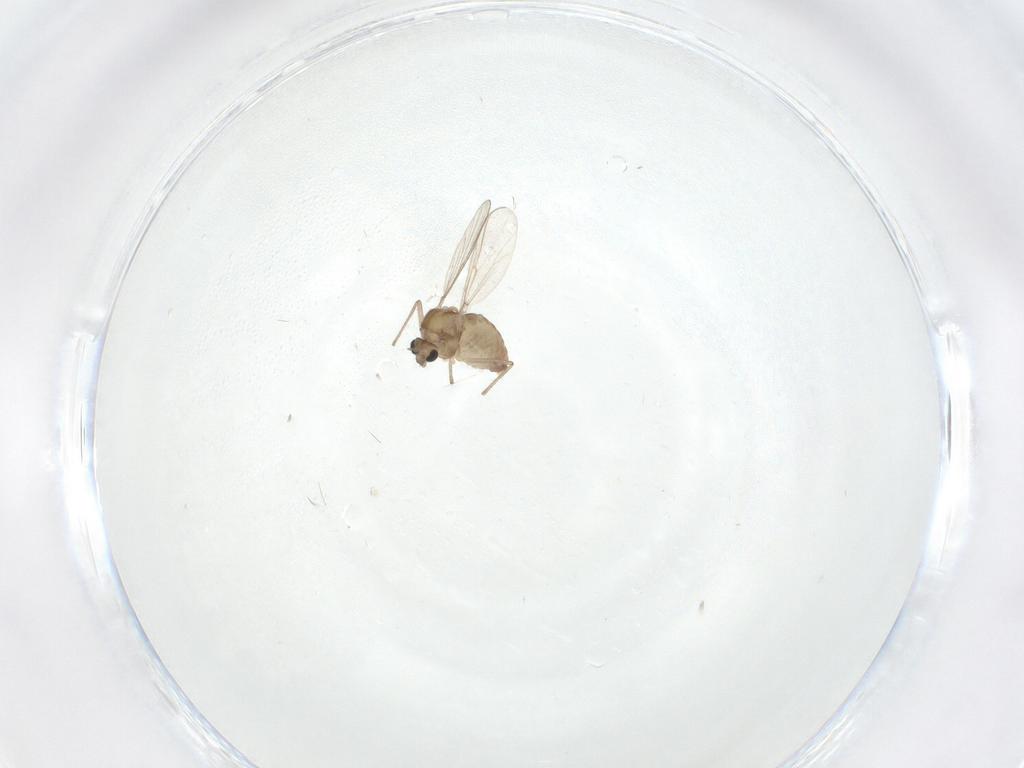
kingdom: Animalia
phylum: Arthropoda
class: Insecta
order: Diptera
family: Chironomidae
